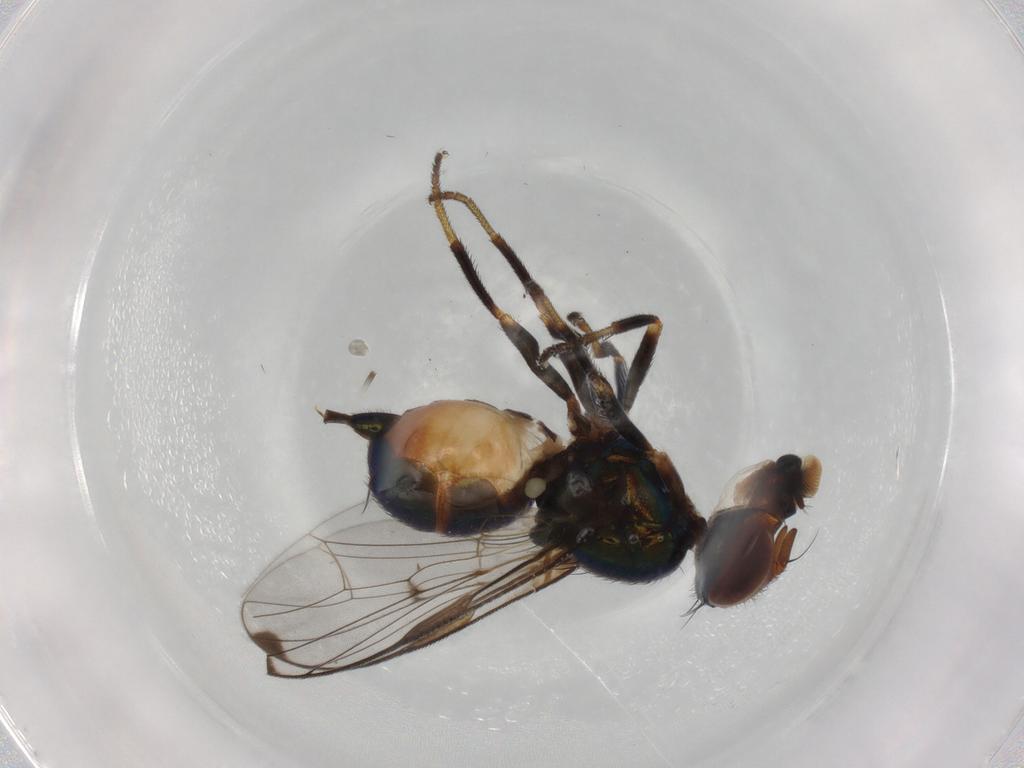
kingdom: Animalia
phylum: Arthropoda
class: Insecta
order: Diptera
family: Platystomatidae
